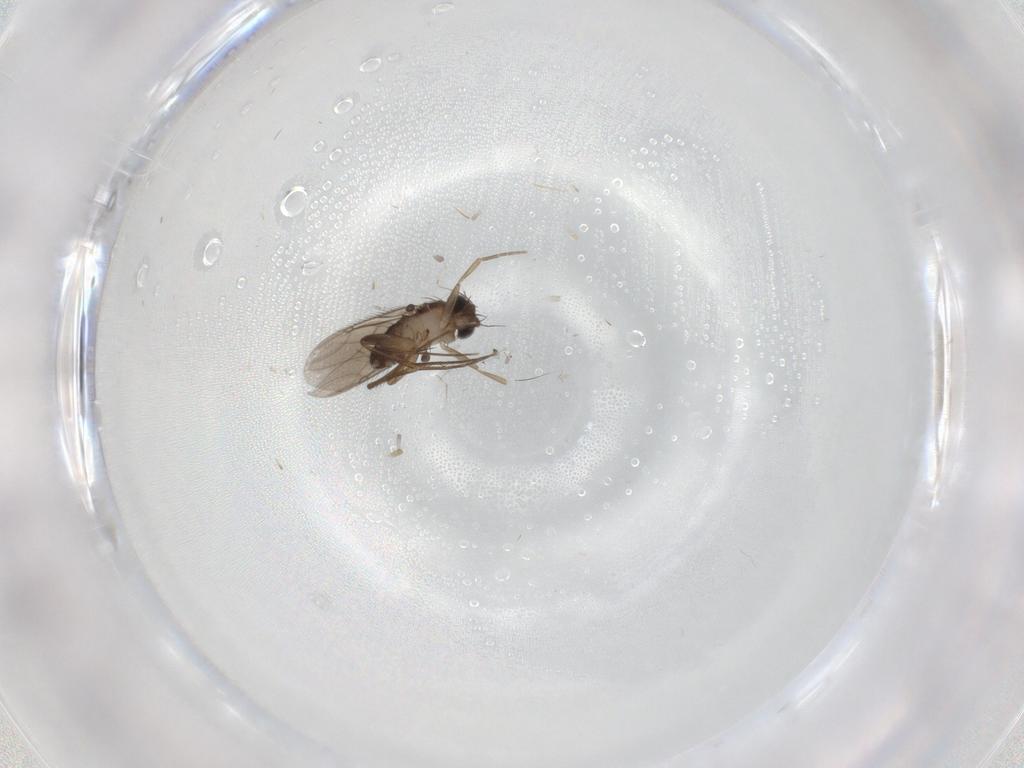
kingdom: Animalia
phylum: Arthropoda
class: Insecta
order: Diptera
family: Phoridae
